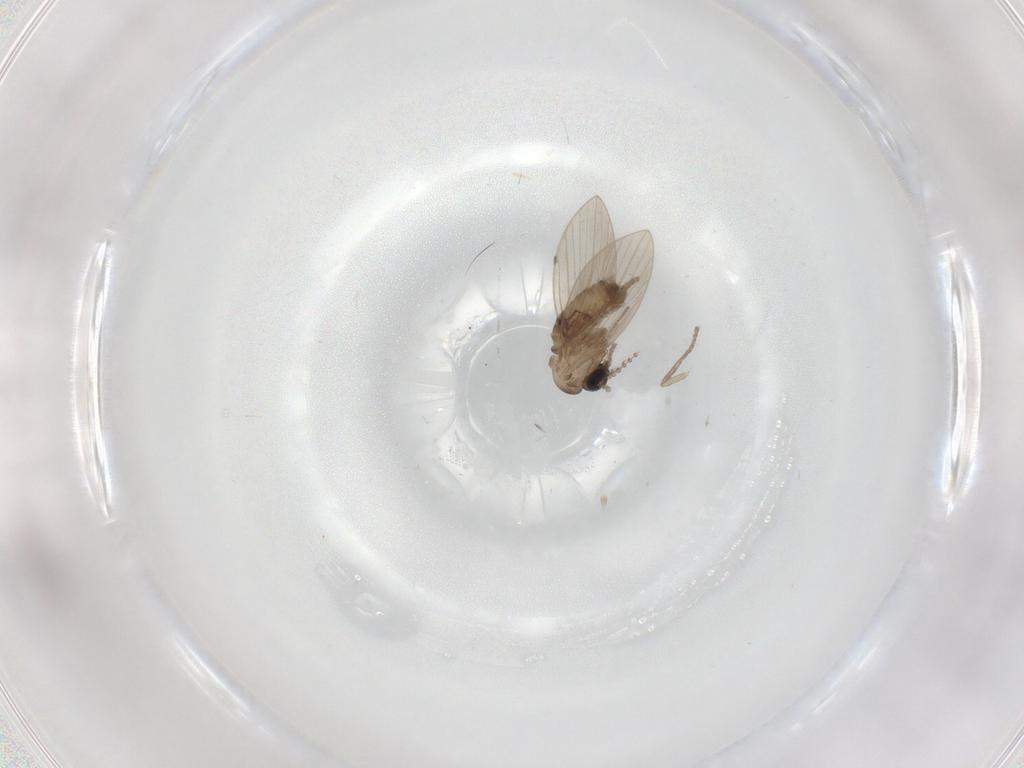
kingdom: Animalia
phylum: Arthropoda
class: Insecta
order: Diptera
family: Psychodidae
